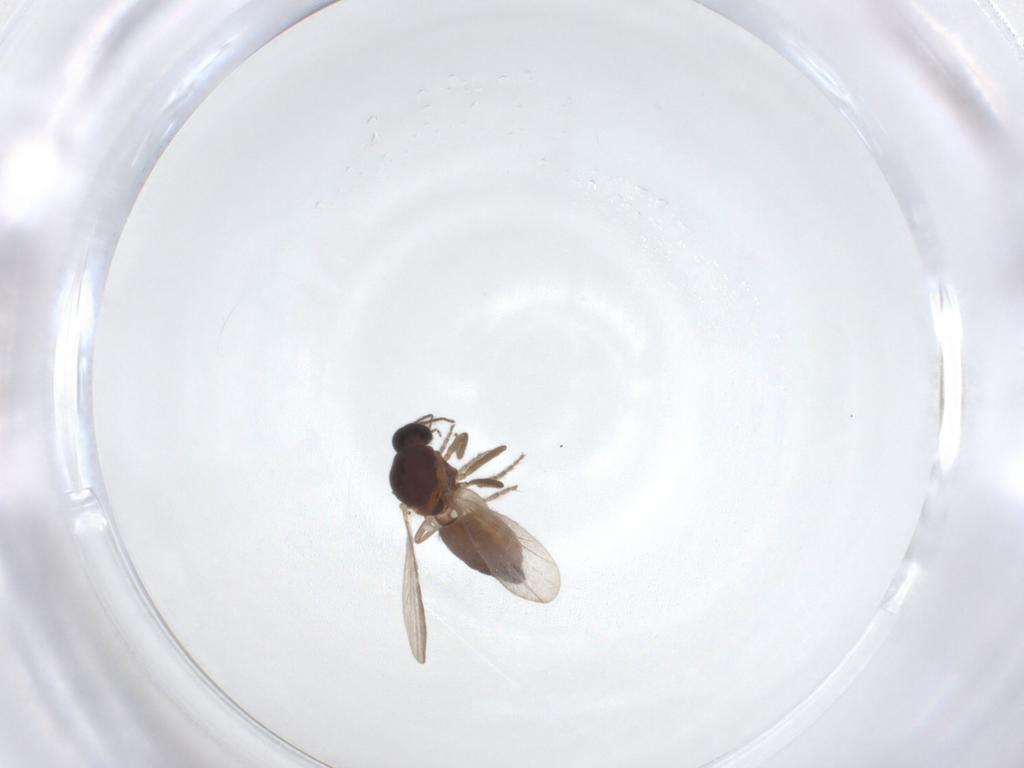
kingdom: Animalia
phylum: Arthropoda
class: Insecta
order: Diptera
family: Ceratopogonidae
